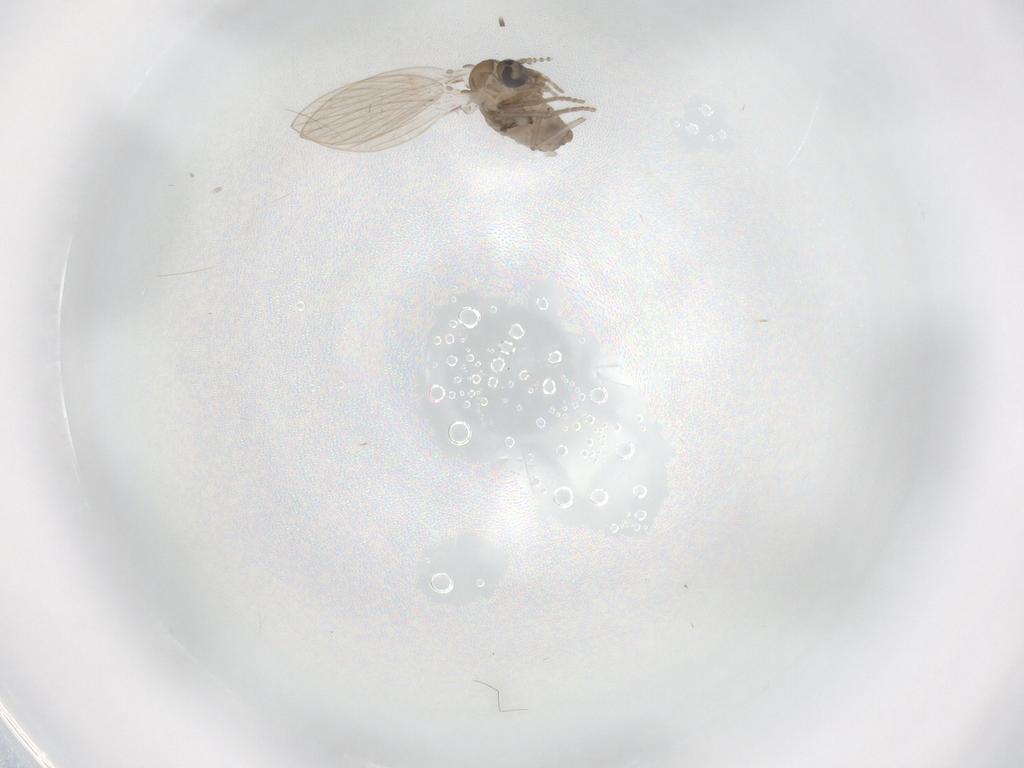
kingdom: Animalia
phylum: Arthropoda
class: Insecta
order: Diptera
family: Psychodidae
